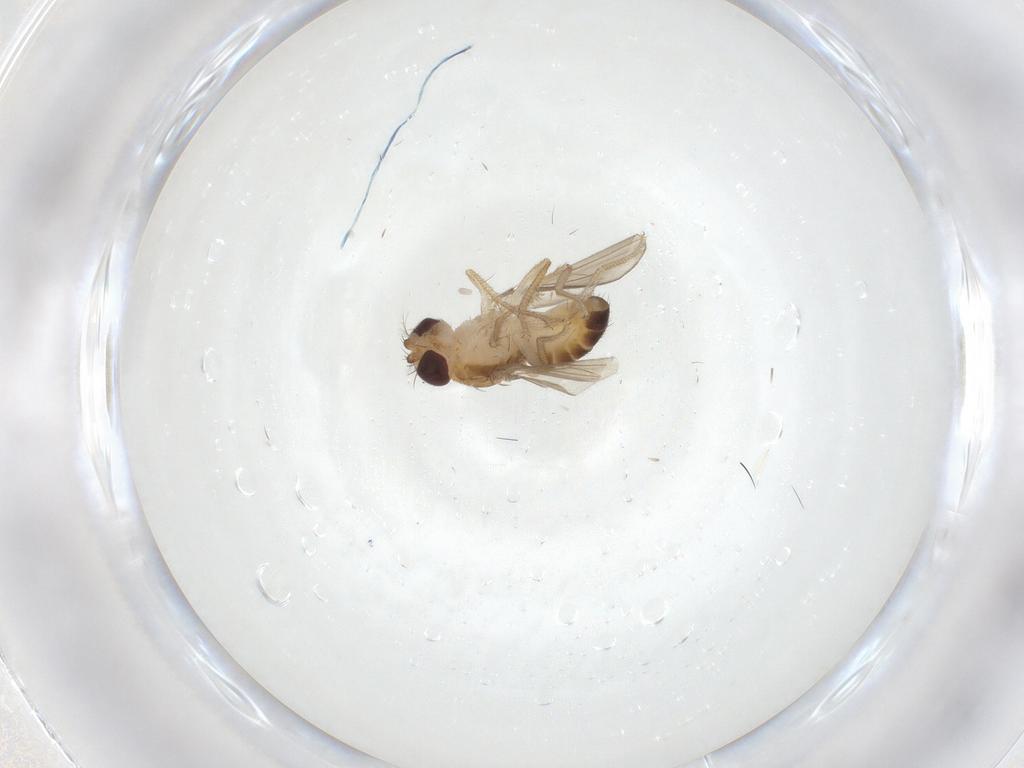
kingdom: Animalia
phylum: Arthropoda
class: Insecta
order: Diptera
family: Drosophilidae
